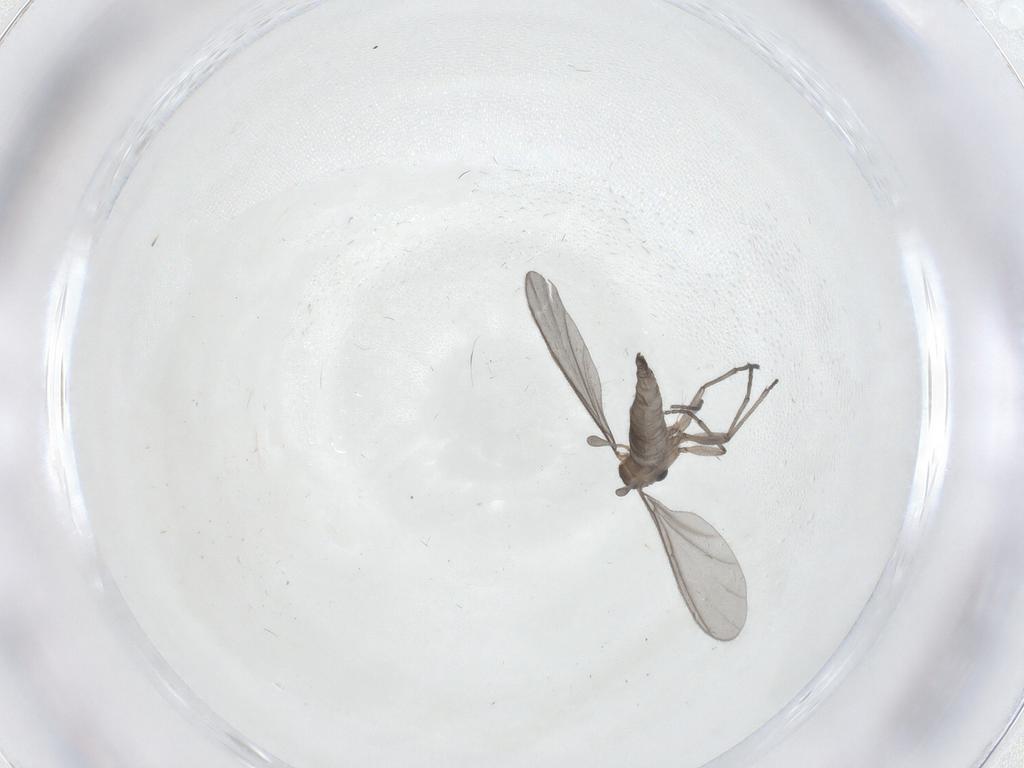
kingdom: Animalia
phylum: Arthropoda
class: Insecta
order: Diptera
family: Sciaridae
